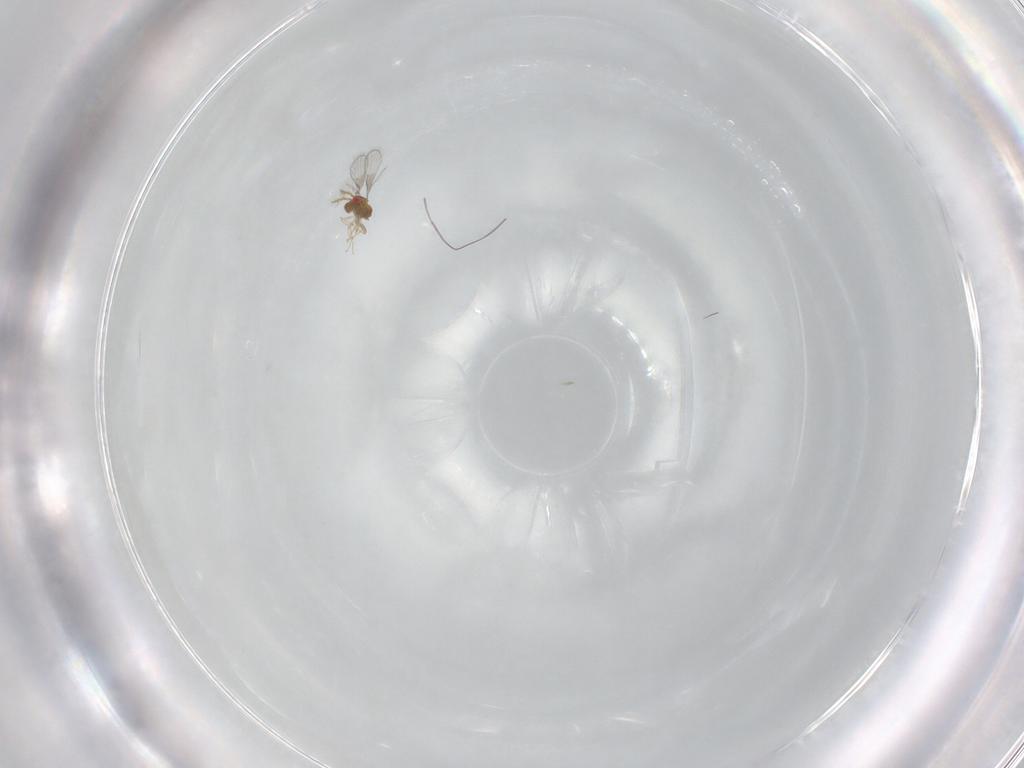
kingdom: Animalia
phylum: Arthropoda
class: Insecta
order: Hymenoptera
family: Trichogrammatidae
